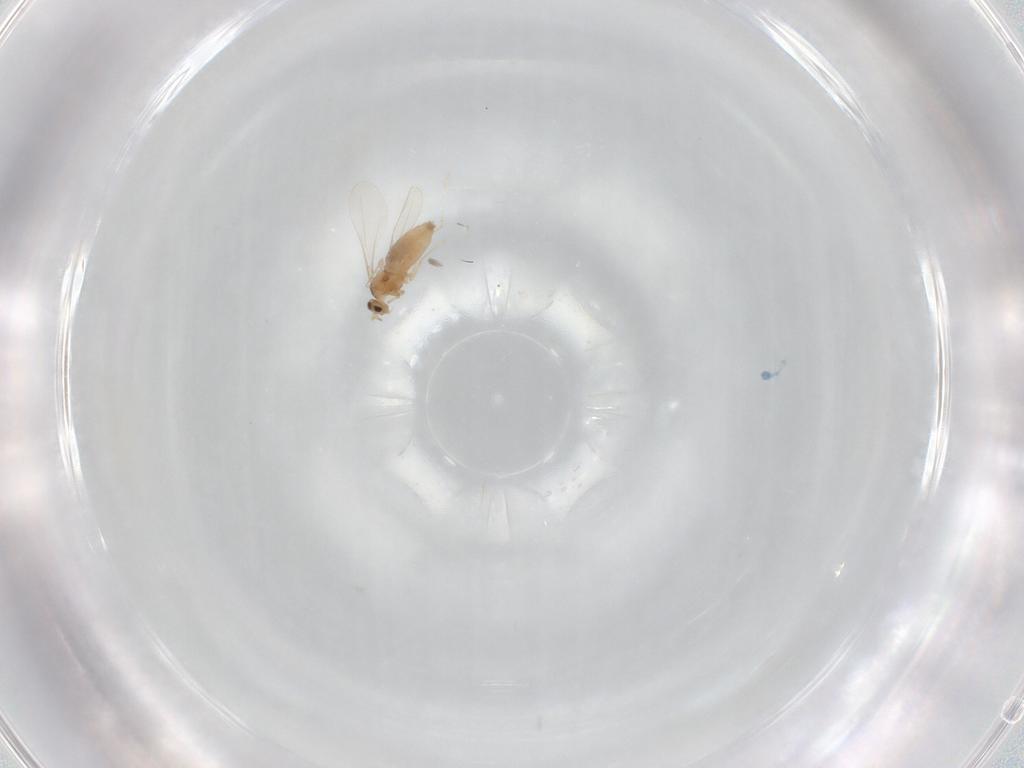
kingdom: Animalia
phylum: Arthropoda
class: Insecta
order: Diptera
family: Cecidomyiidae
